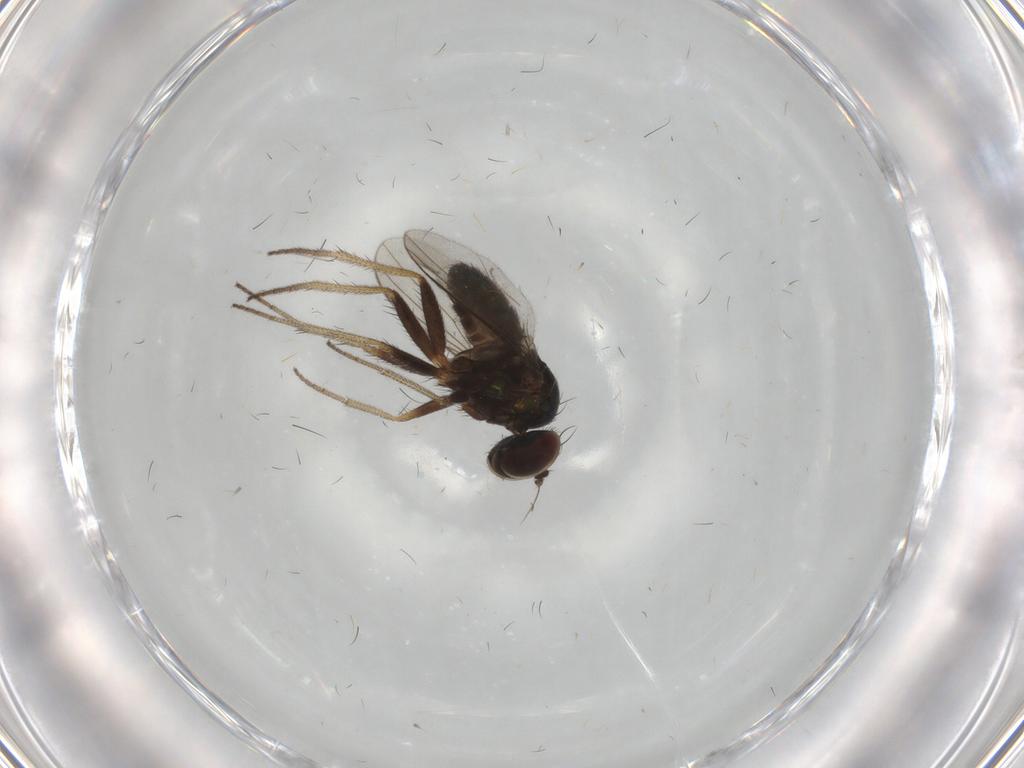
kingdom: Animalia
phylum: Arthropoda
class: Insecta
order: Diptera
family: Dolichopodidae
